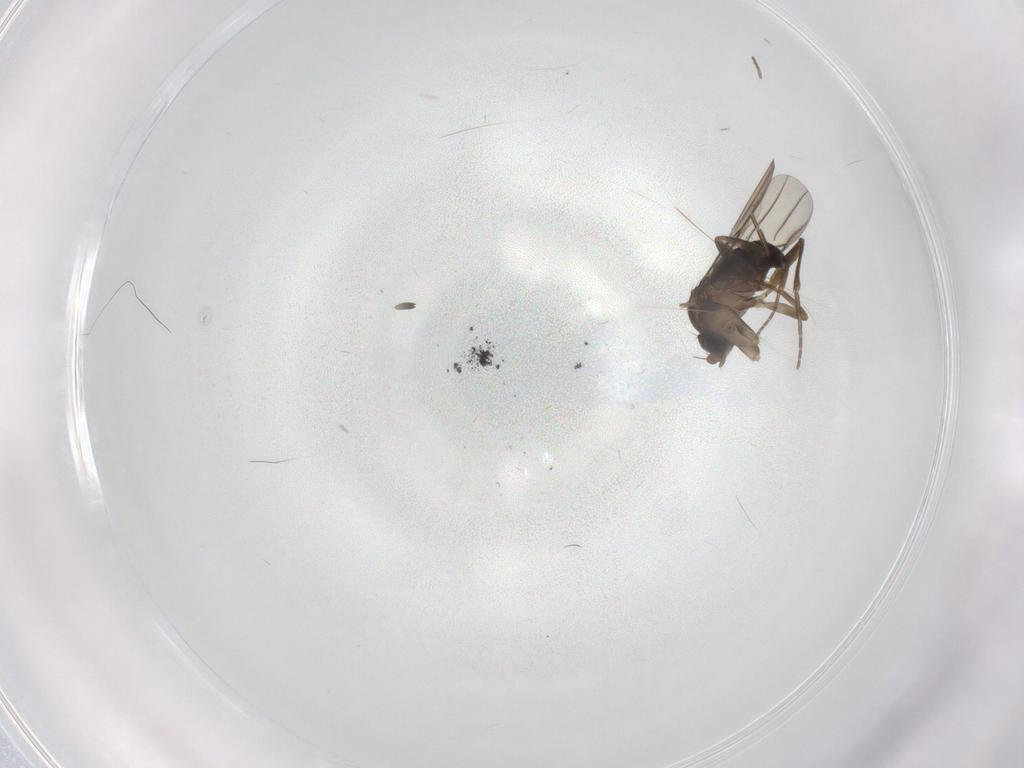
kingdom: Animalia
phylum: Arthropoda
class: Insecta
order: Diptera
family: Phoridae
